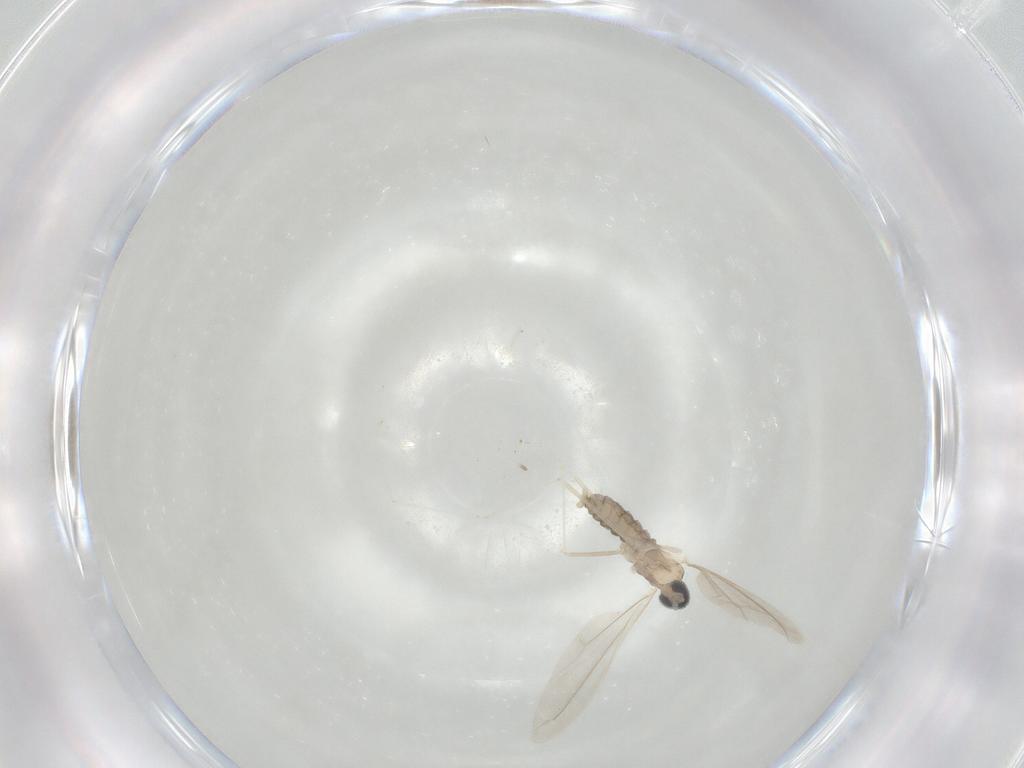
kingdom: Animalia
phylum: Arthropoda
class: Insecta
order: Diptera
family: Cecidomyiidae
